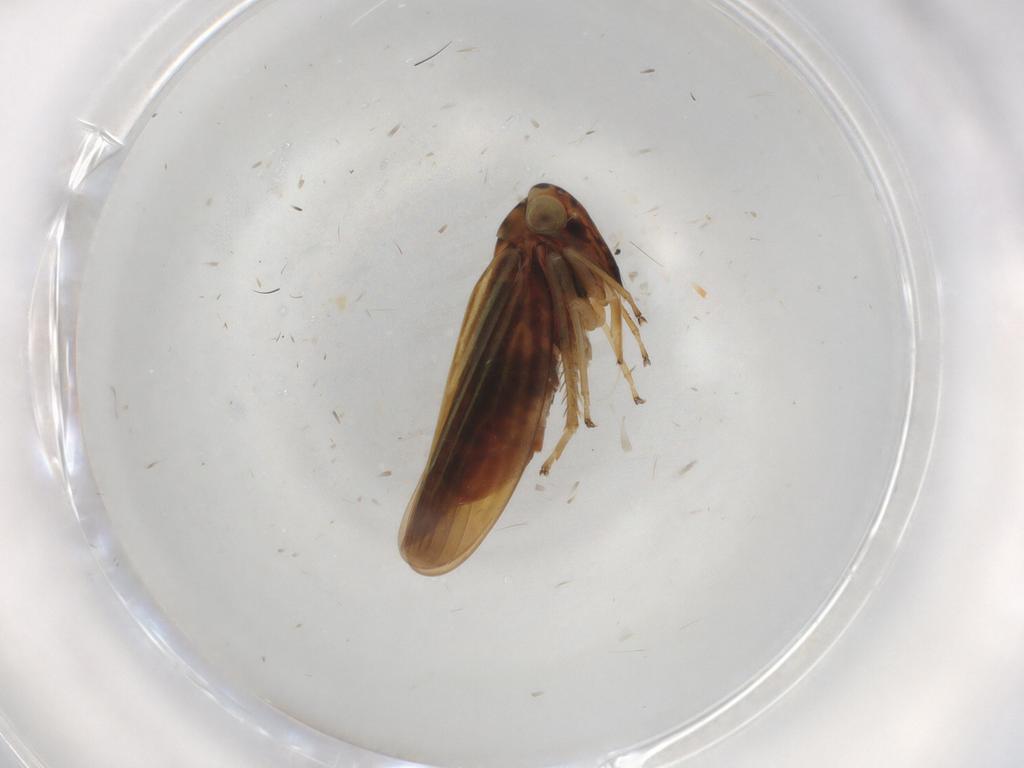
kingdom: Animalia
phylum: Arthropoda
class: Insecta
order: Hemiptera
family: Cicadellidae
